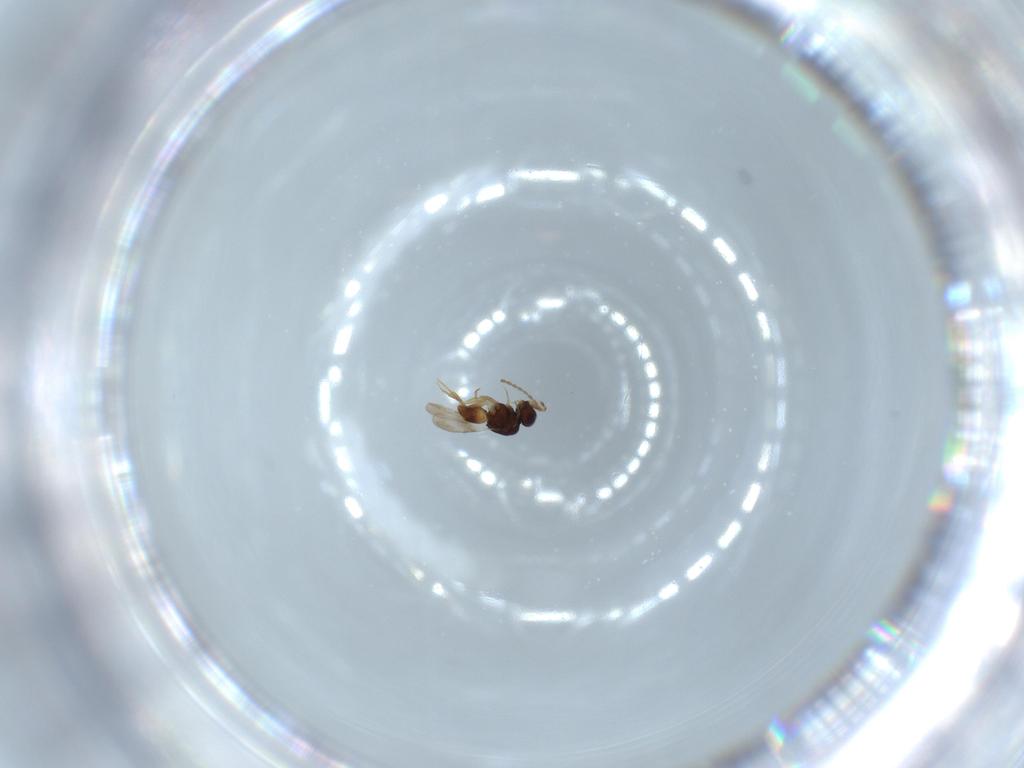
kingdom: Animalia
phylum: Arthropoda
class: Insecta
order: Hymenoptera
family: Ceraphronidae
